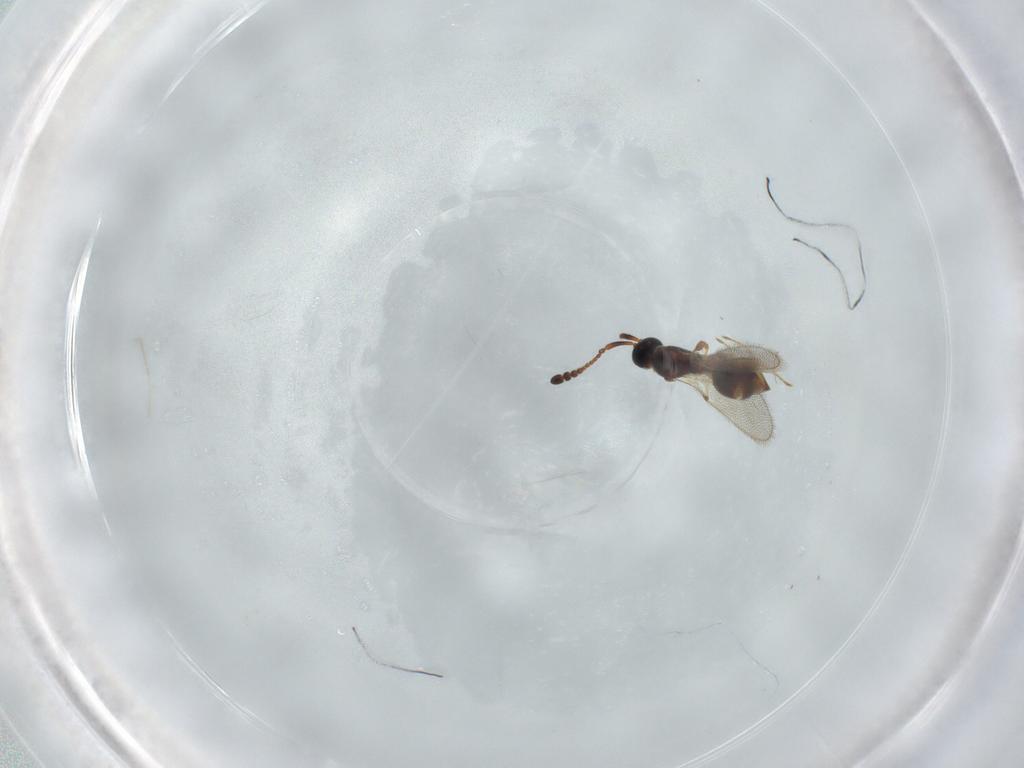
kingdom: Animalia
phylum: Arthropoda
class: Insecta
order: Hymenoptera
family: Diapriidae
